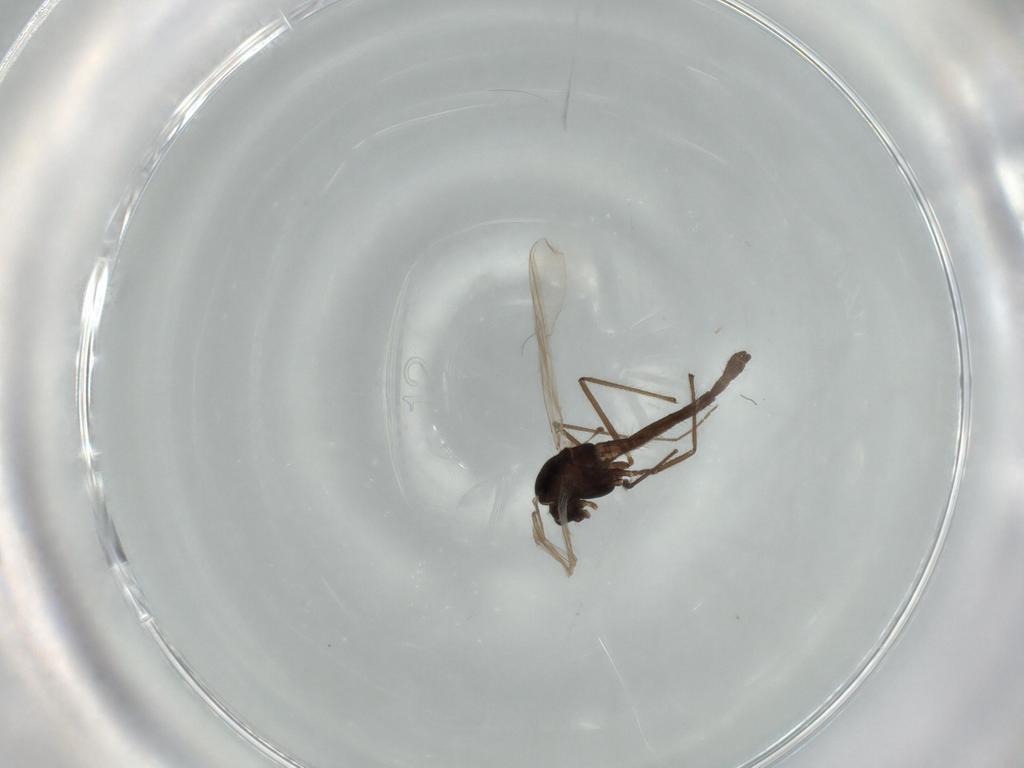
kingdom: Animalia
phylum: Arthropoda
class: Insecta
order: Diptera
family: Chironomidae
